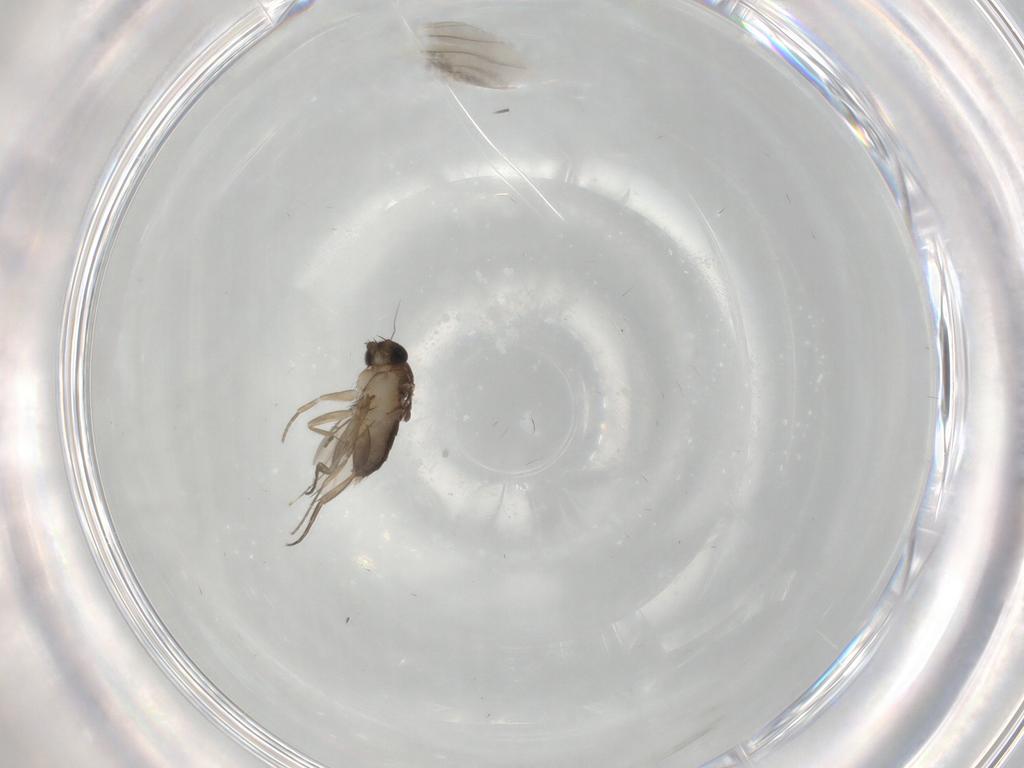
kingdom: Animalia
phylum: Arthropoda
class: Insecta
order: Diptera
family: Phoridae
